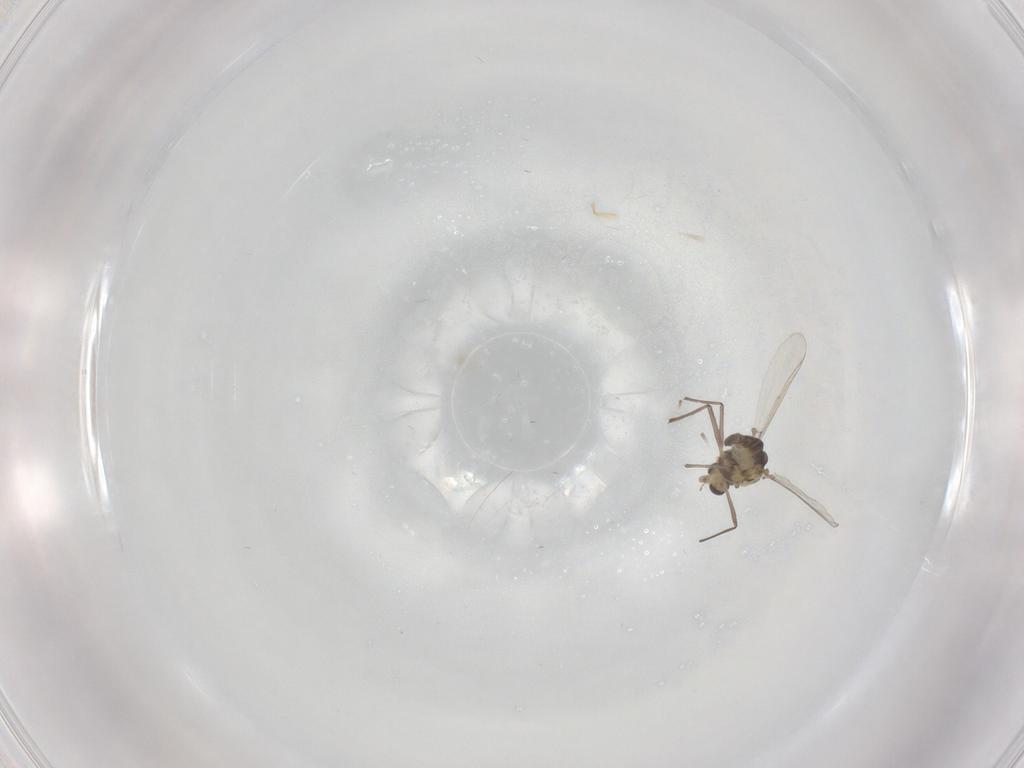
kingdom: Animalia
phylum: Arthropoda
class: Insecta
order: Diptera
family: Chironomidae
